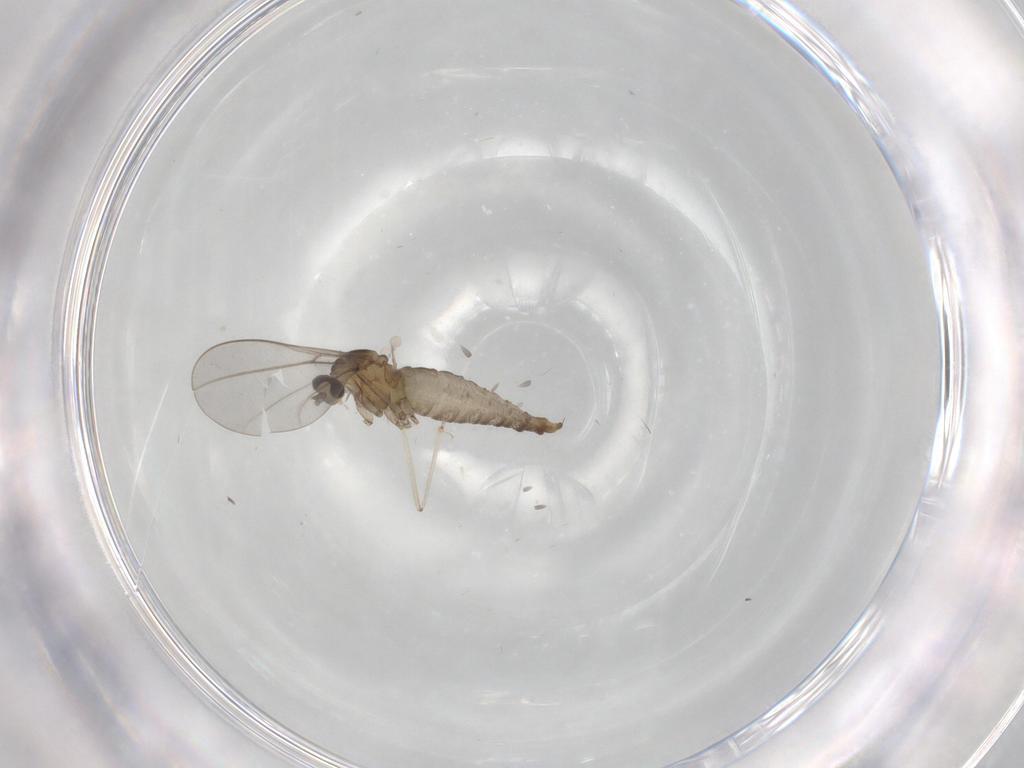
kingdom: Animalia
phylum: Arthropoda
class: Insecta
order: Diptera
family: Cecidomyiidae
